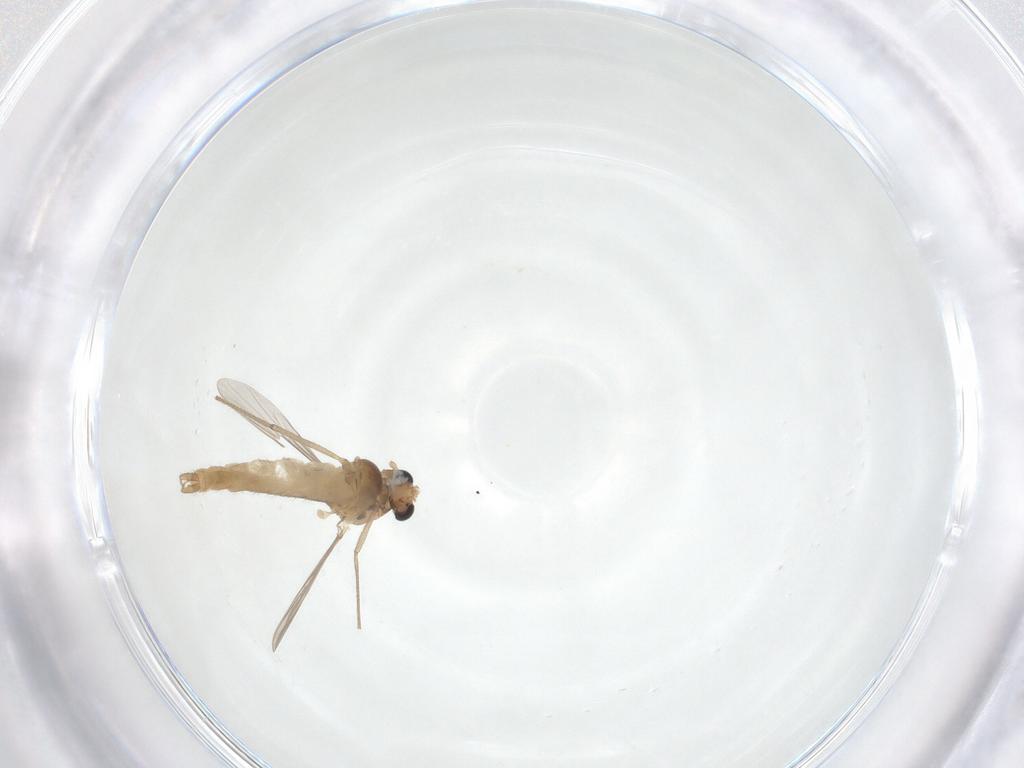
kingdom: Animalia
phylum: Arthropoda
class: Insecta
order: Diptera
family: Chironomidae
